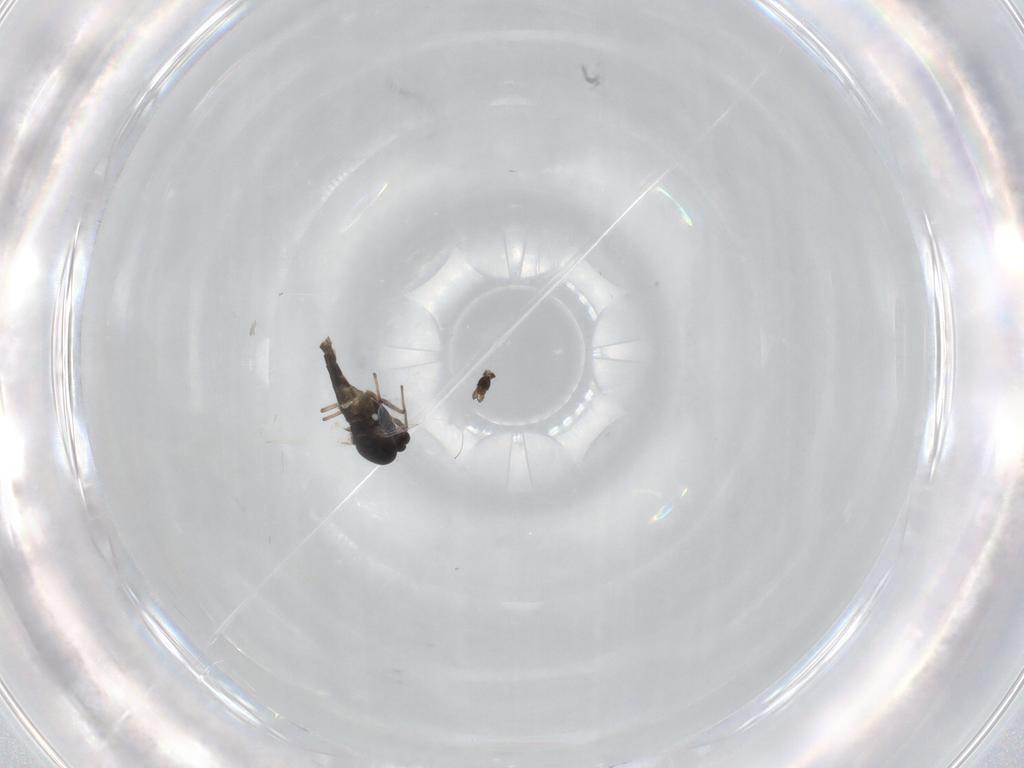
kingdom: Animalia
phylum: Arthropoda
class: Insecta
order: Diptera
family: Chironomidae
